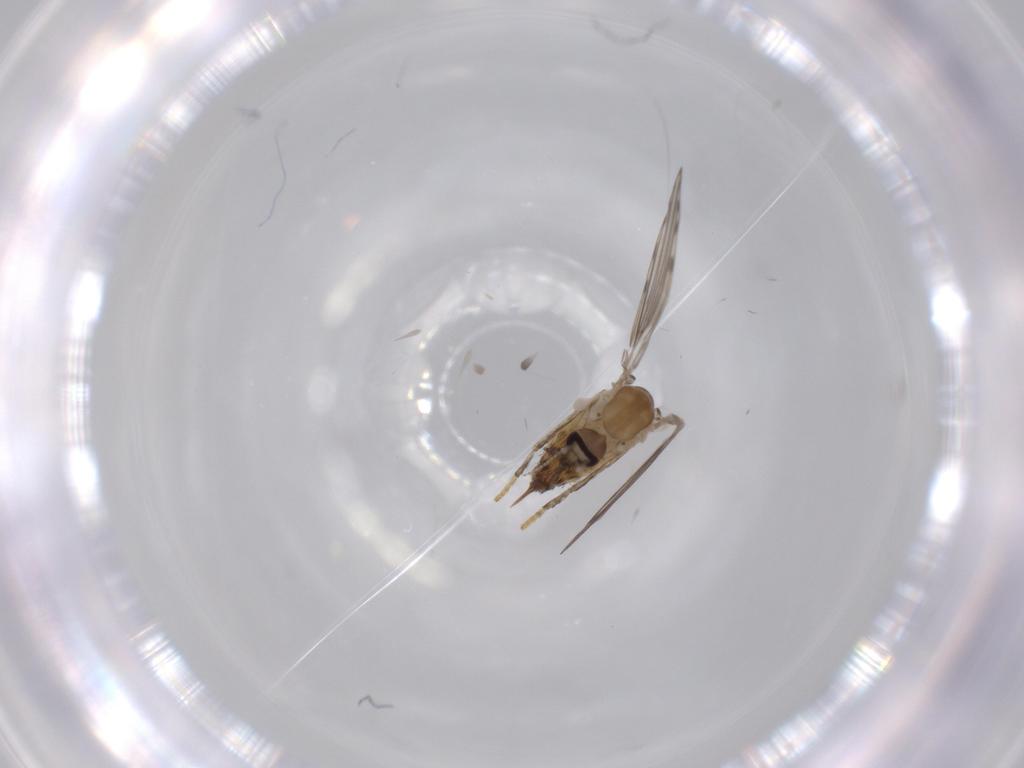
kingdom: Animalia
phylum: Arthropoda
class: Insecta
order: Diptera
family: Psychodidae
